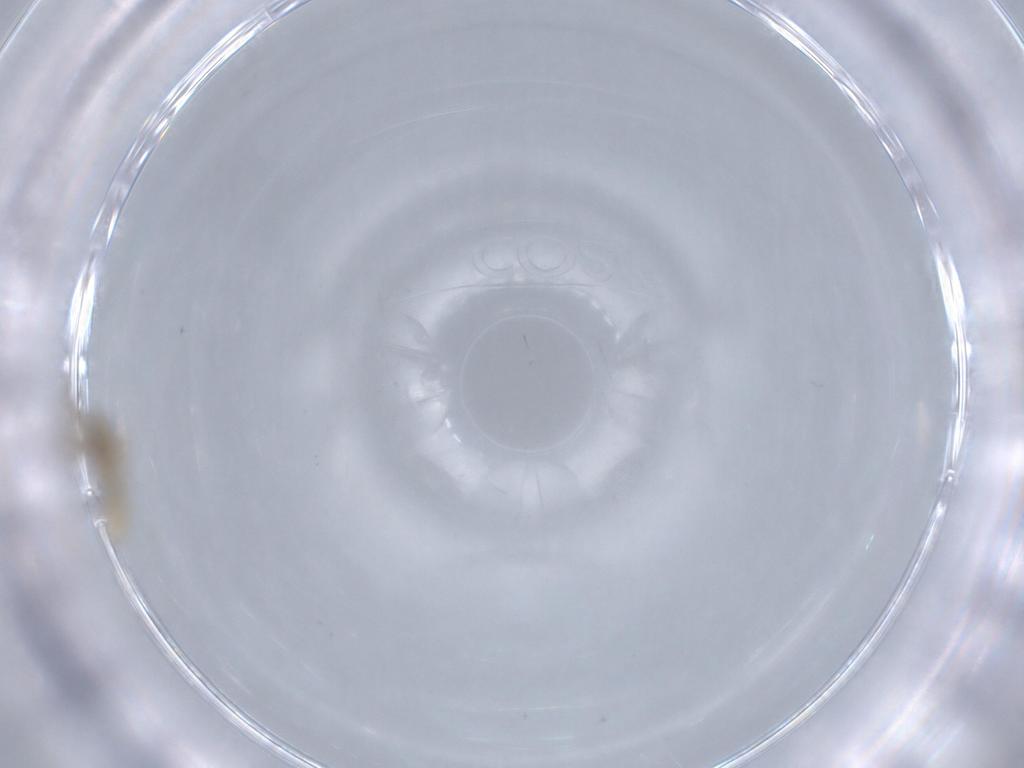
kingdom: Animalia
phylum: Arthropoda
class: Insecta
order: Diptera
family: Cecidomyiidae
